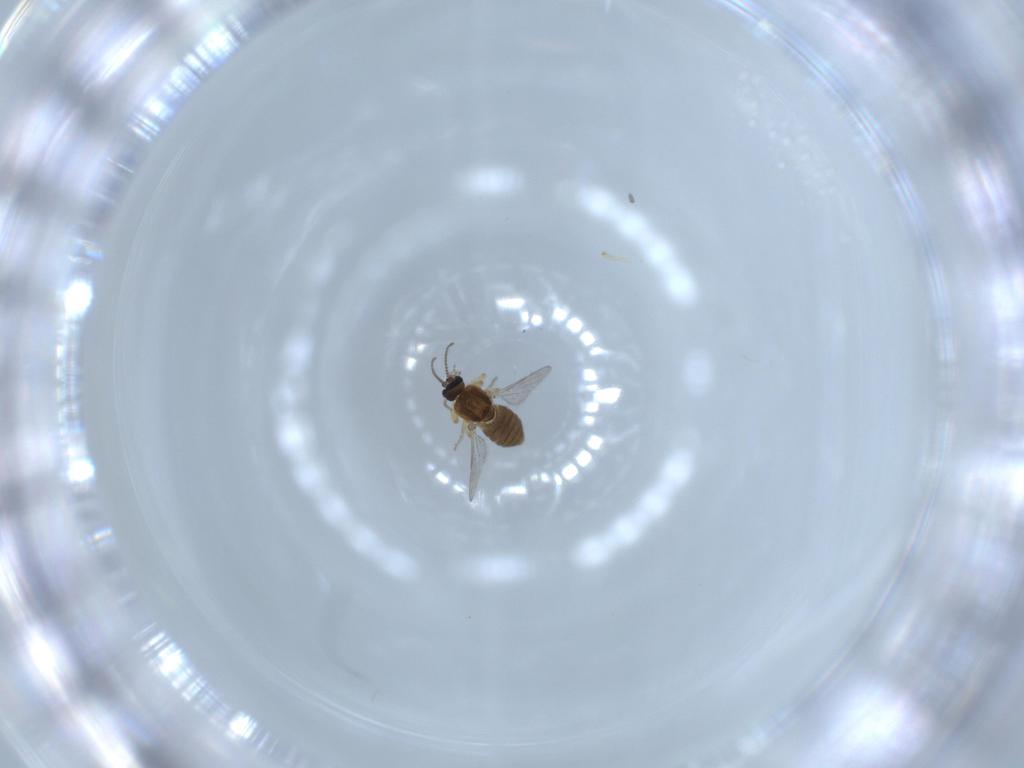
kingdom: Animalia
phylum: Arthropoda
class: Insecta
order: Diptera
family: Ceratopogonidae
